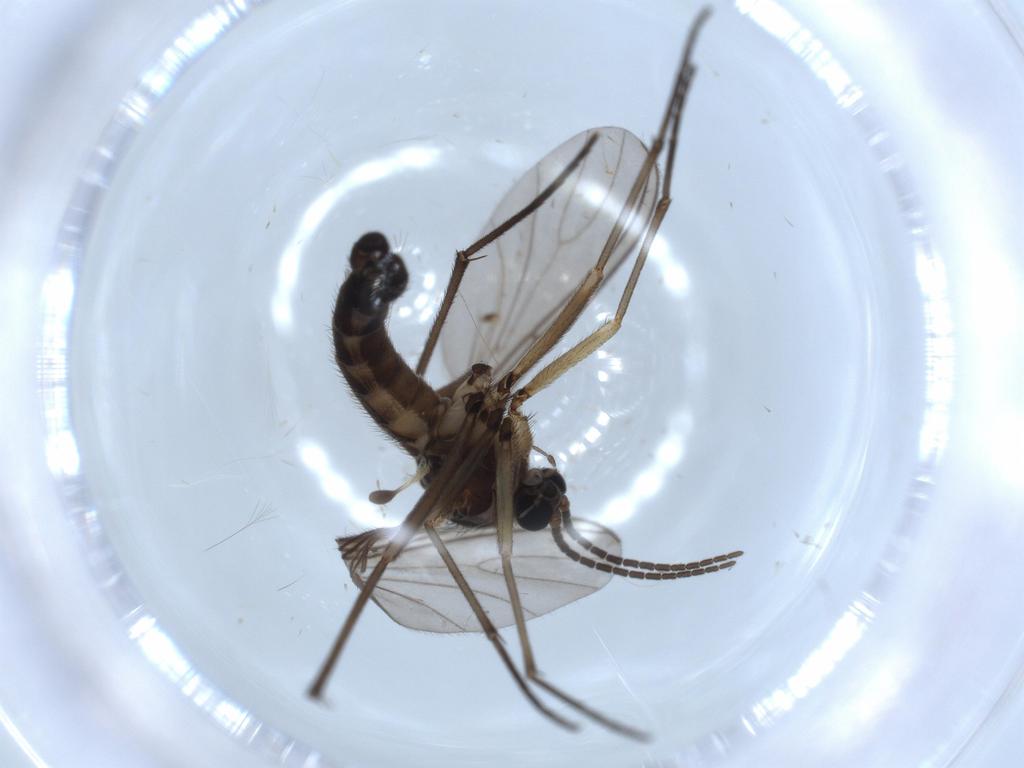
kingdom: Animalia
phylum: Arthropoda
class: Insecta
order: Diptera
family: Sciaridae
